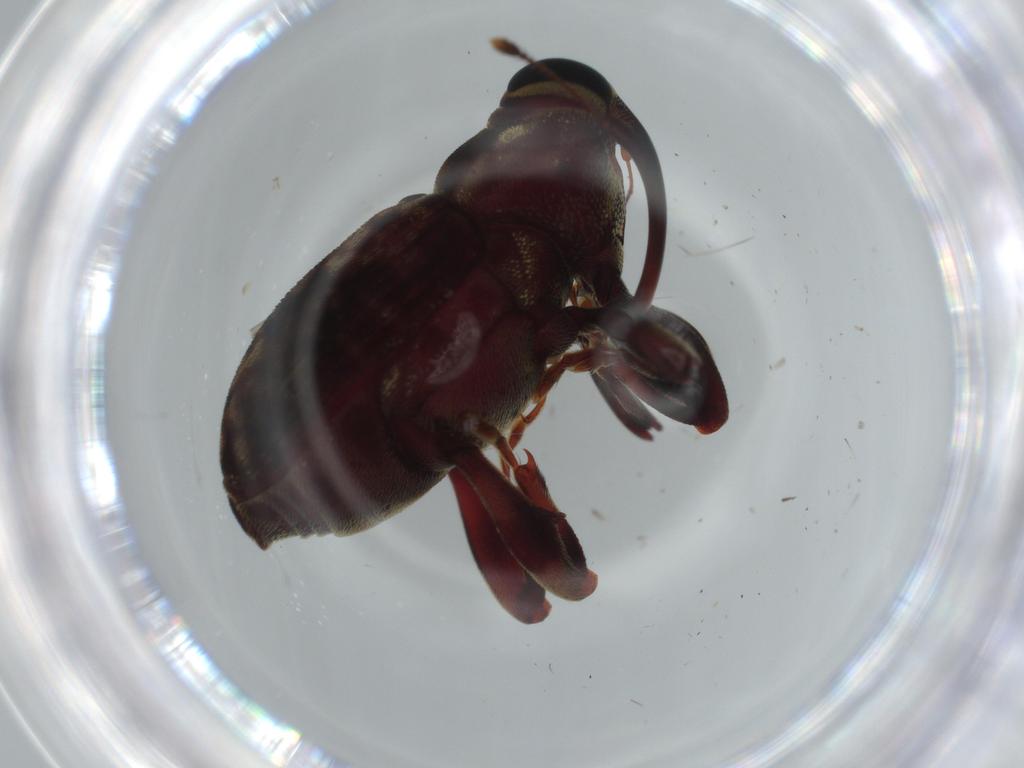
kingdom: Animalia
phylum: Arthropoda
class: Insecta
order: Coleoptera
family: Curculionidae
